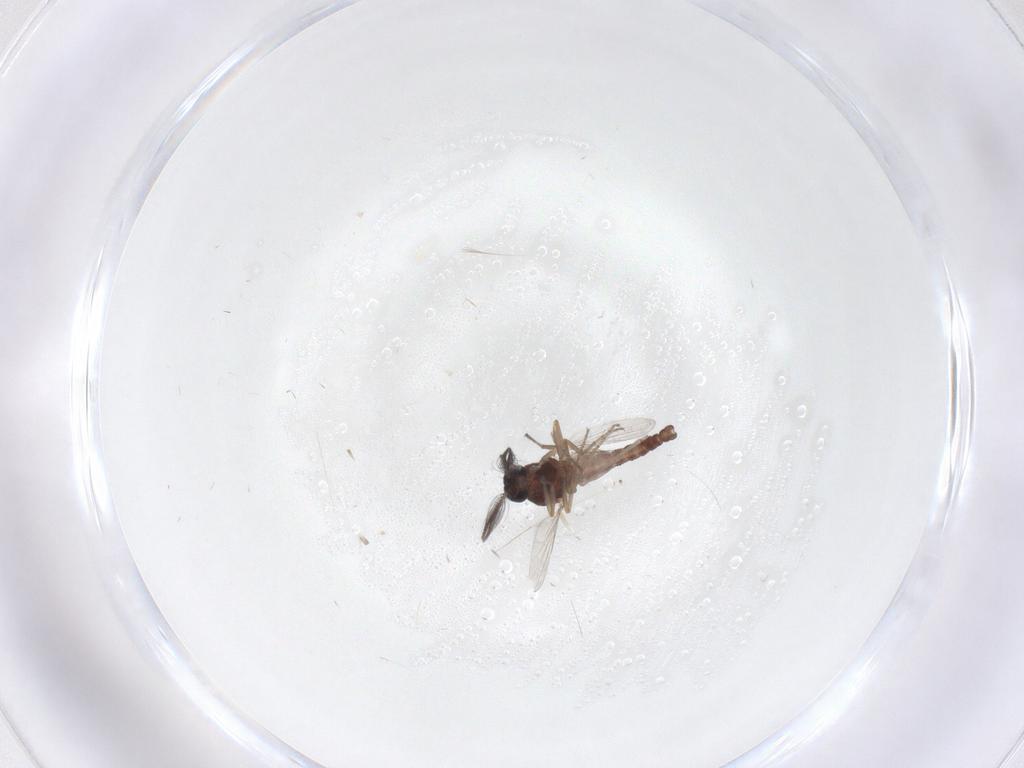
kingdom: Animalia
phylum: Arthropoda
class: Insecta
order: Diptera
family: Ceratopogonidae
